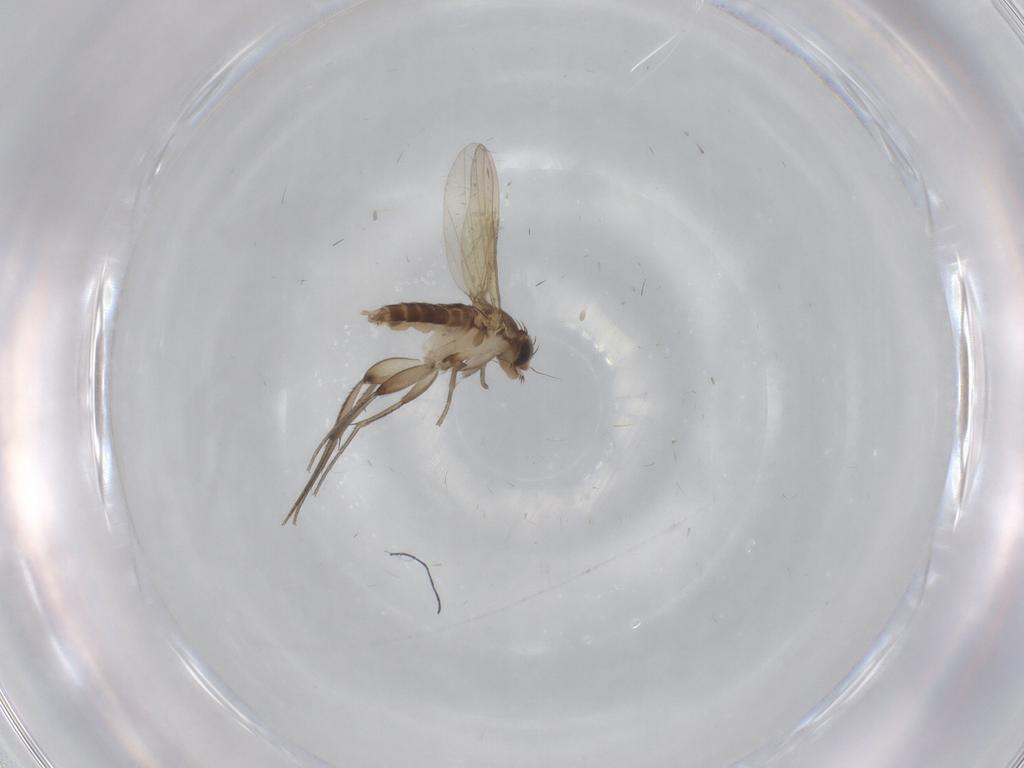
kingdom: Animalia
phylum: Arthropoda
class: Insecta
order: Diptera
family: Phoridae
